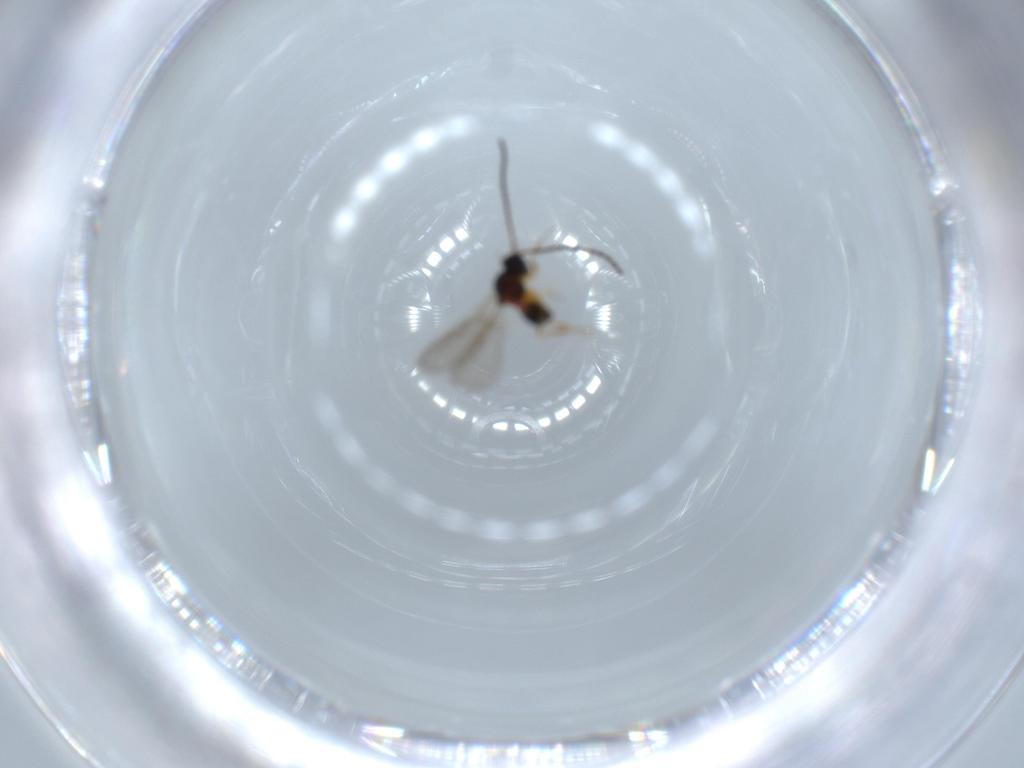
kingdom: Animalia
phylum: Arthropoda
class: Insecta
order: Hymenoptera
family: Figitidae
